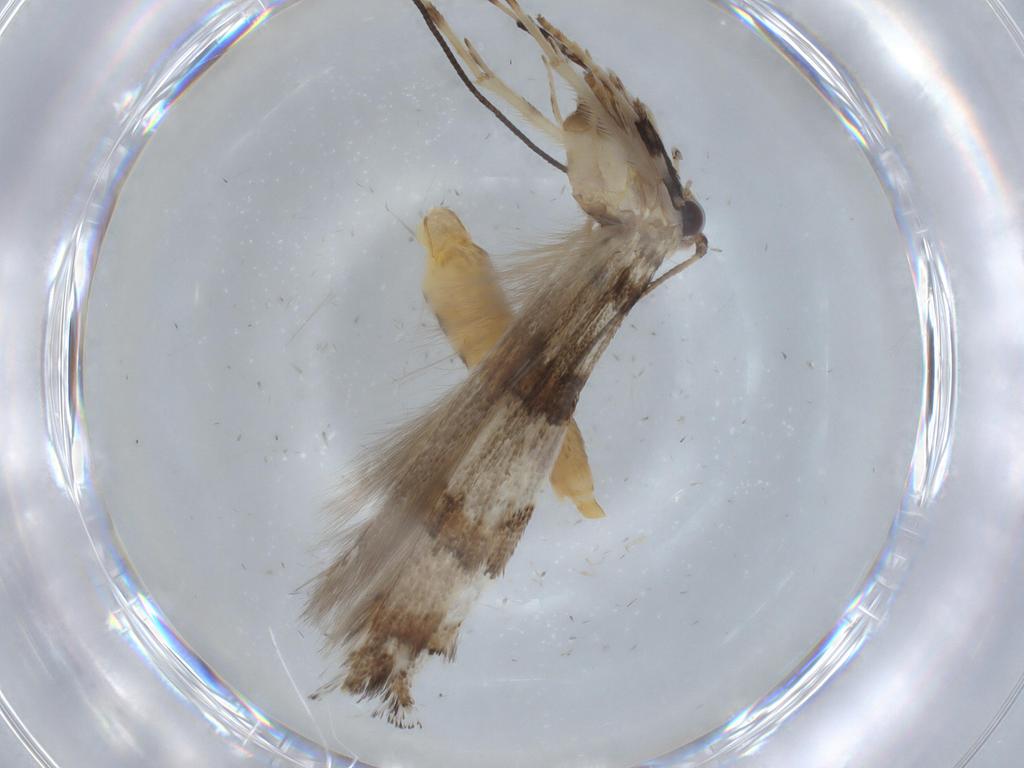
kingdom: Animalia
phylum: Arthropoda
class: Insecta
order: Lepidoptera
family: Gracillariidae
